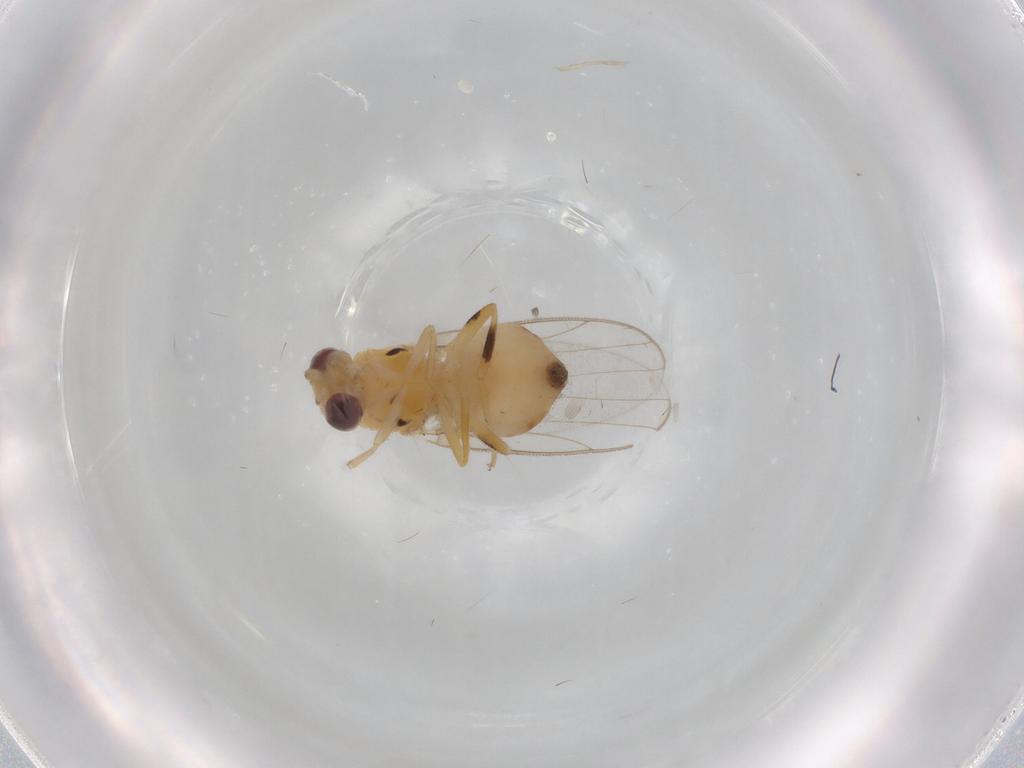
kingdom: Animalia
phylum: Arthropoda
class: Insecta
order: Diptera
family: Chloropidae
